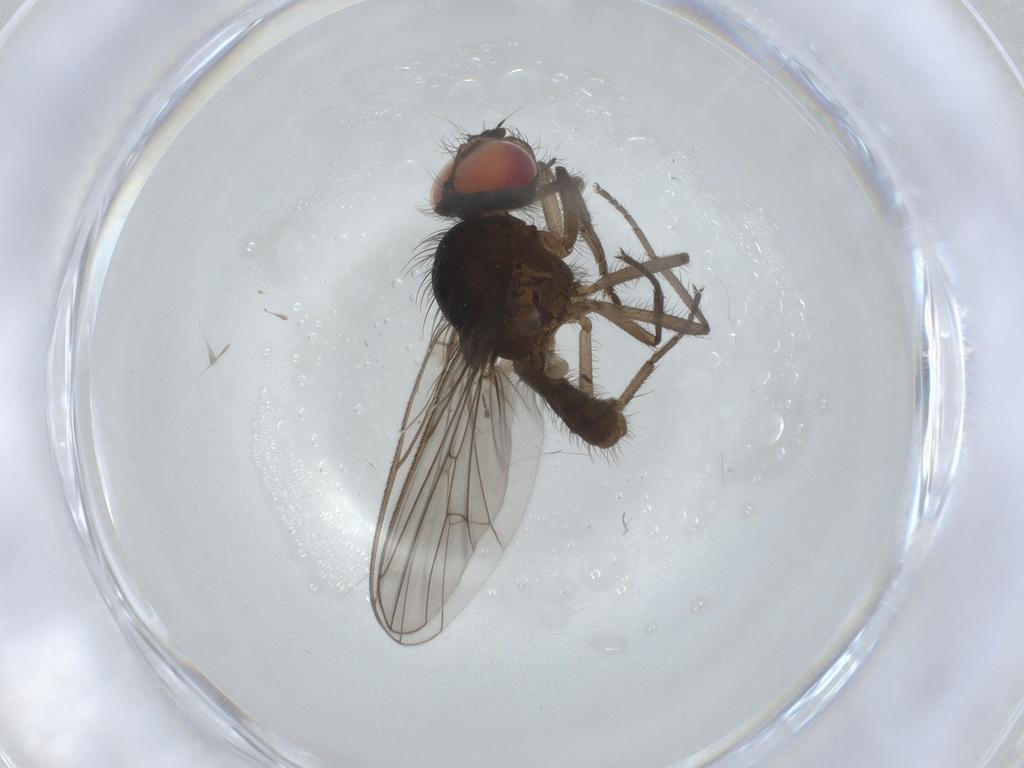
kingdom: Animalia
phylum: Arthropoda
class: Insecta
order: Diptera
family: Anthomyiidae
